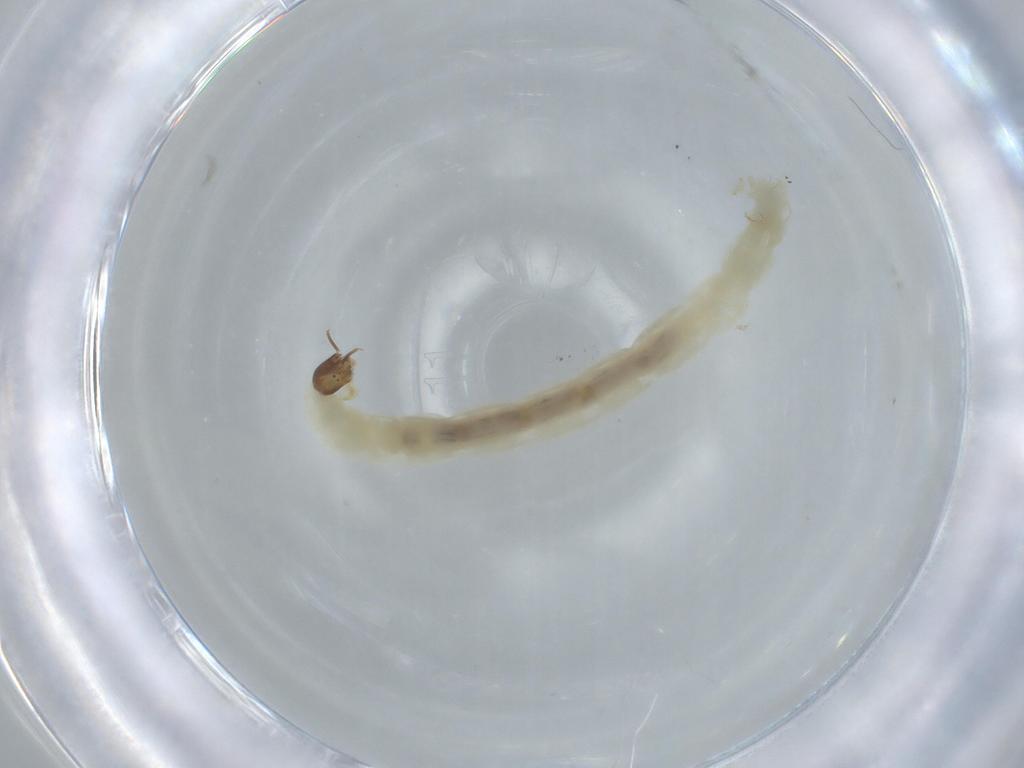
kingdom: Animalia
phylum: Arthropoda
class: Insecta
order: Diptera
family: Chironomidae
